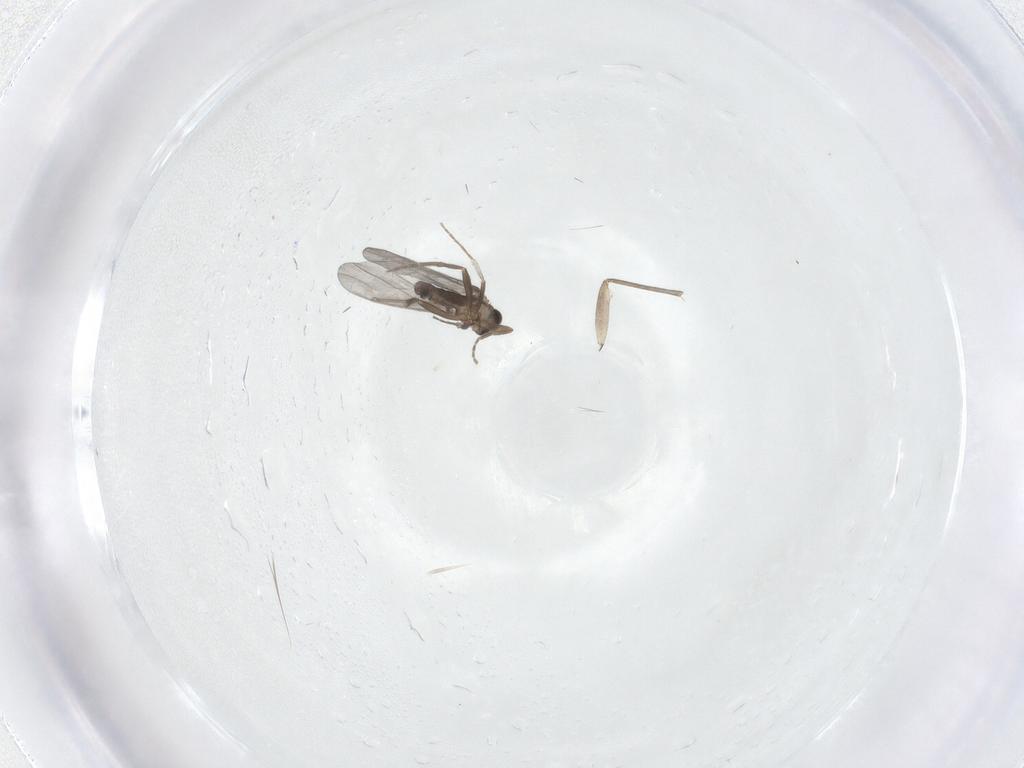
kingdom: Animalia
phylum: Arthropoda
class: Insecta
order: Diptera
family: Sciaridae
